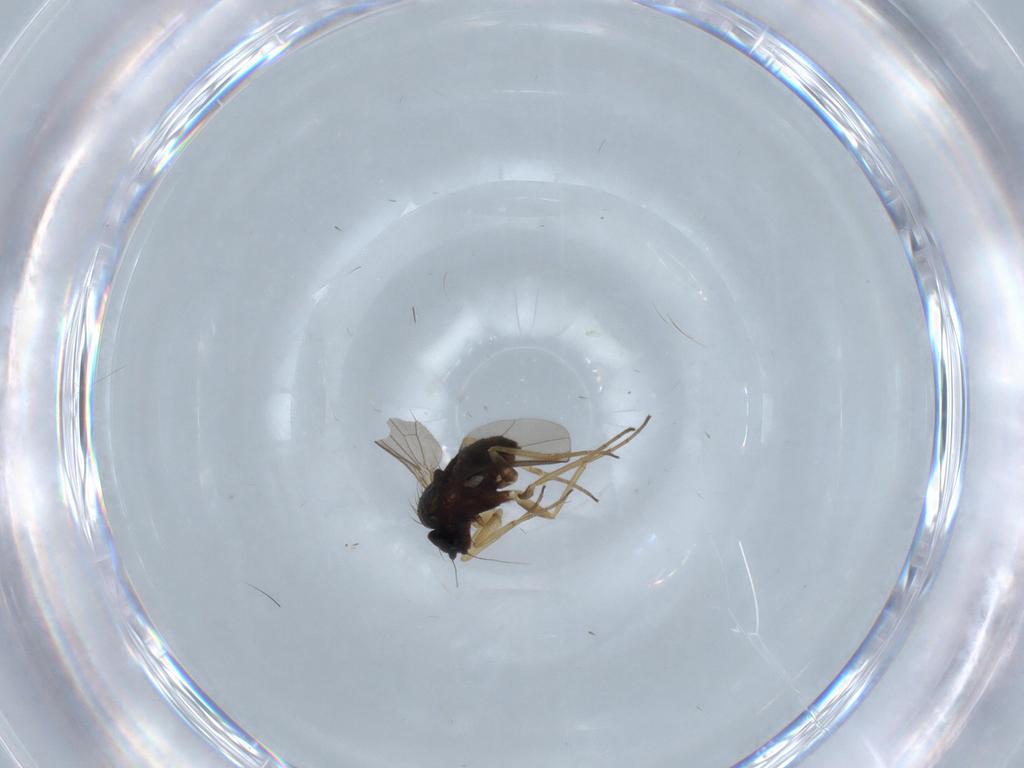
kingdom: Animalia
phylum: Arthropoda
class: Insecta
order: Diptera
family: Dolichopodidae
